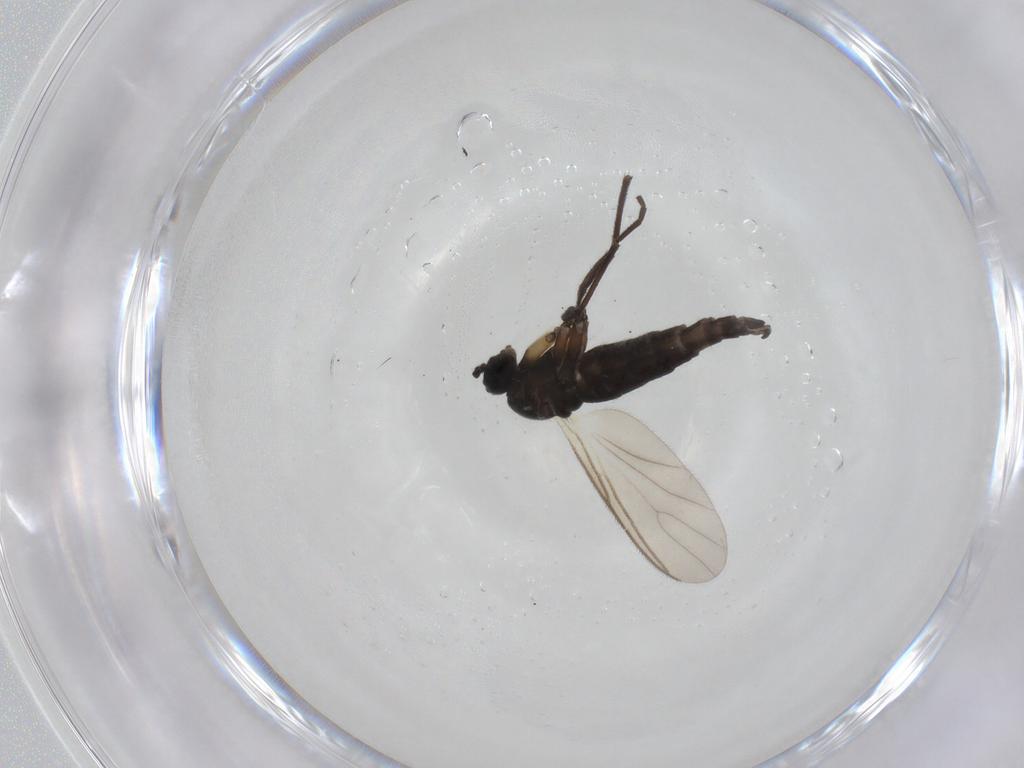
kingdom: Animalia
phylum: Arthropoda
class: Insecta
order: Diptera
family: Sciaridae
